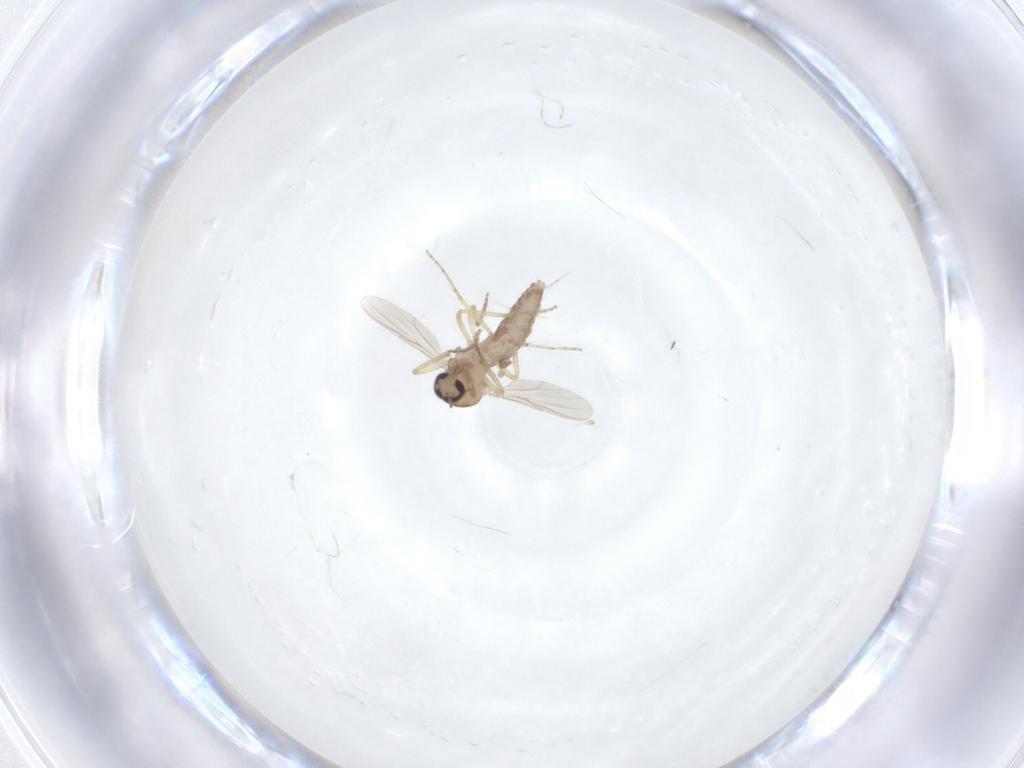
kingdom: Animalia
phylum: Arthropoda
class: Insecta
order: Diptera
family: Ceratopogonidae
